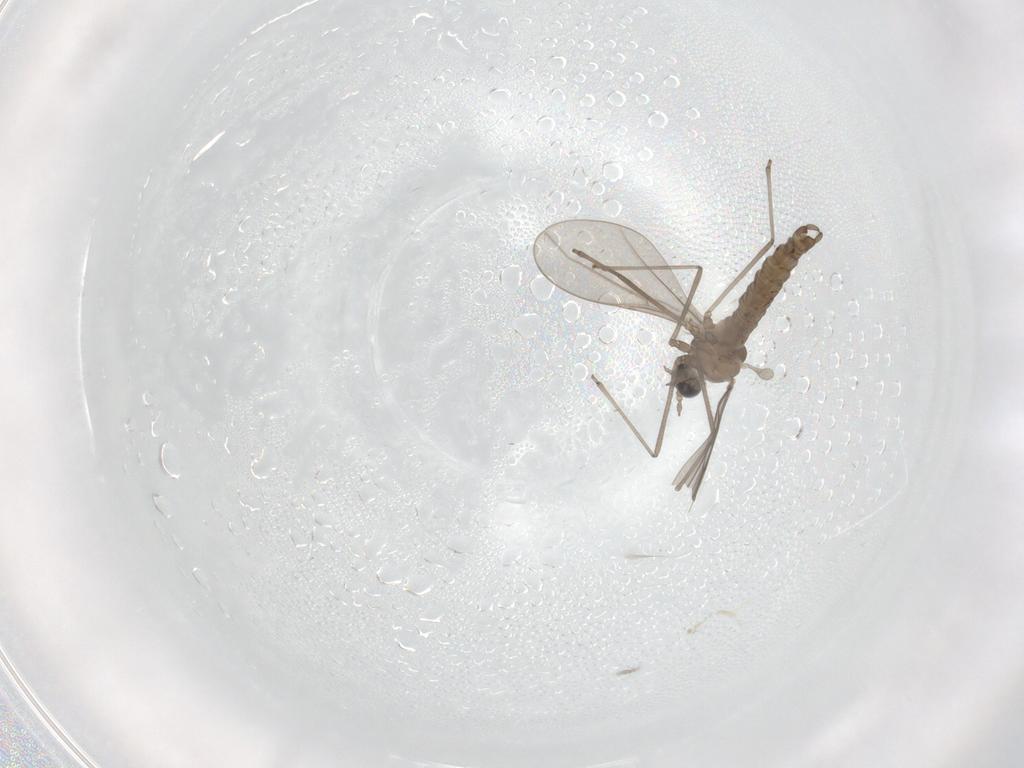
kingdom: Animalia
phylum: Arthropoda
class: Insecta
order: Diptera
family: Cecidomyiidae
